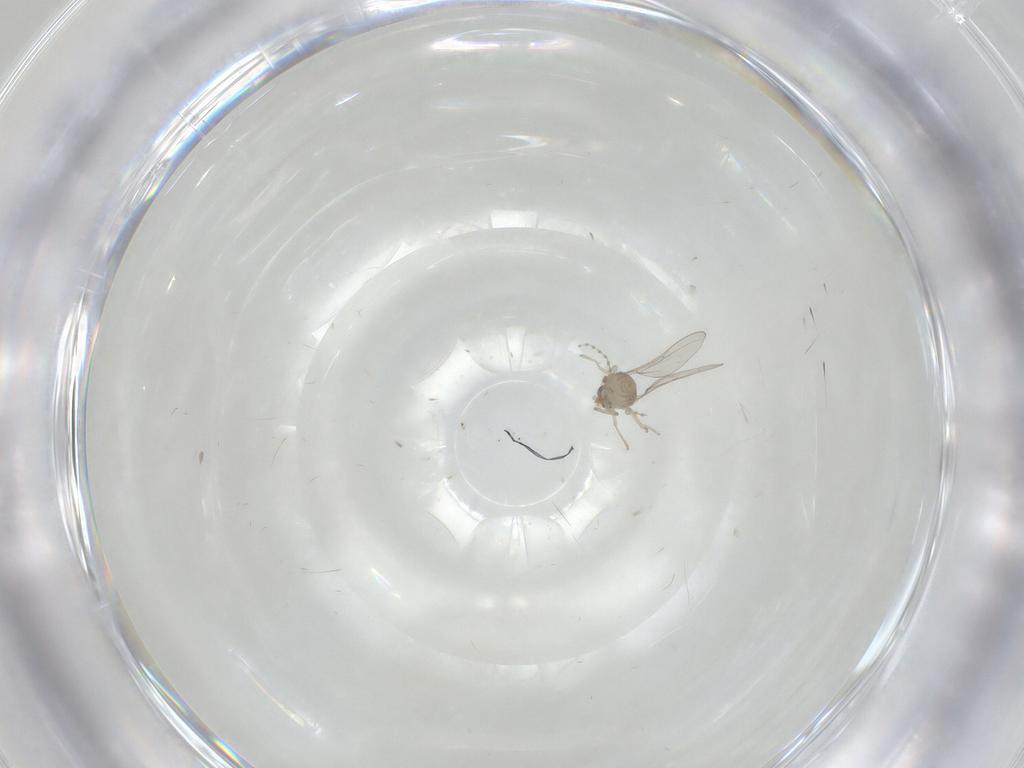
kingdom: Animalia
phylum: Arthropoda
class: Insecta
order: Diptera
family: Cecidomyiidae
